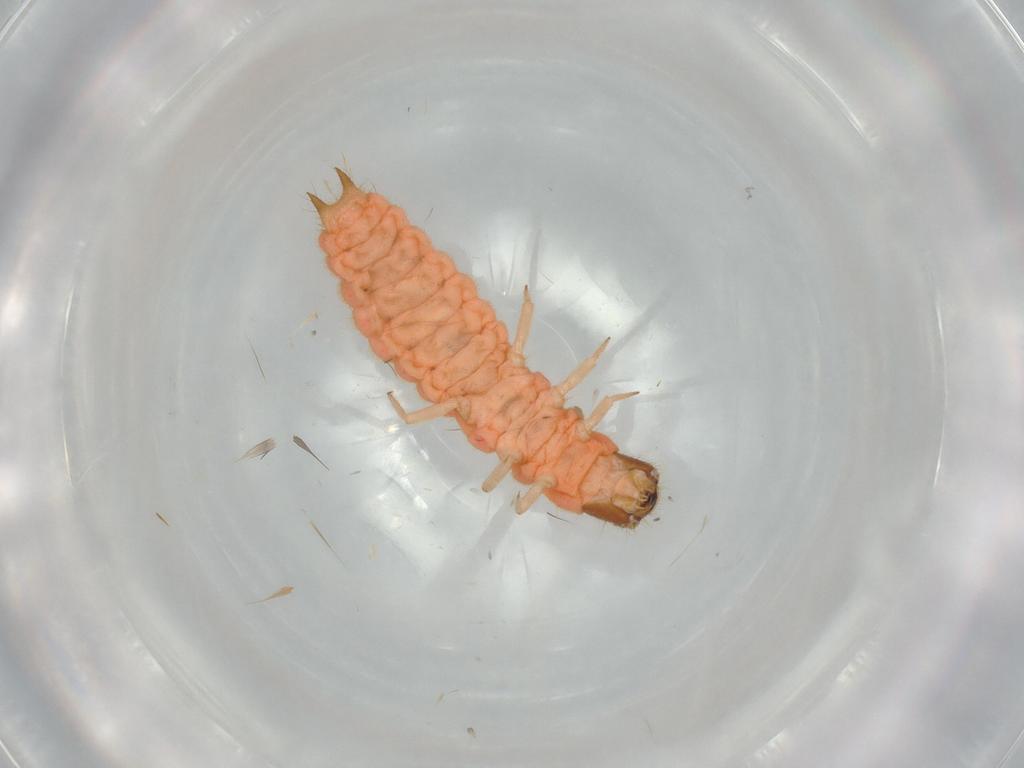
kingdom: Animalia
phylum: Arthropoda
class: Insecta
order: Coleoptera
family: Melyridae
